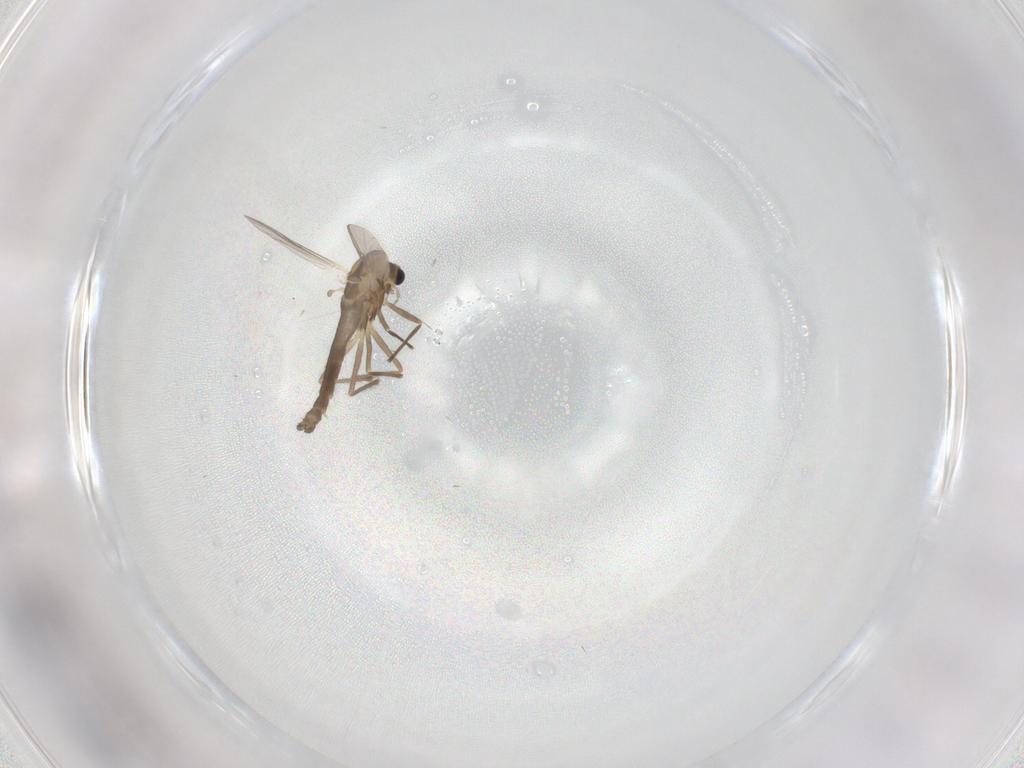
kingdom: Animalia
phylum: Arthropoda
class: Insecta
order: Diptera
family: Chironomidae
